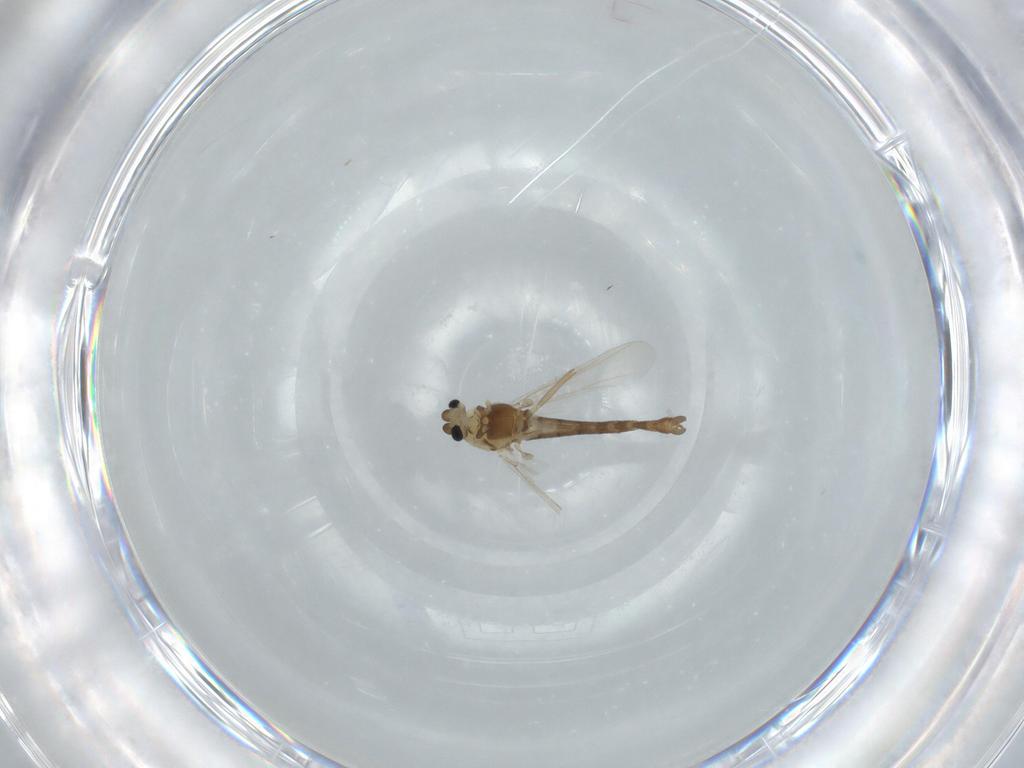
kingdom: Animalia
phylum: Arthropoda
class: Insecta
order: Diptera
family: Chironomidae
